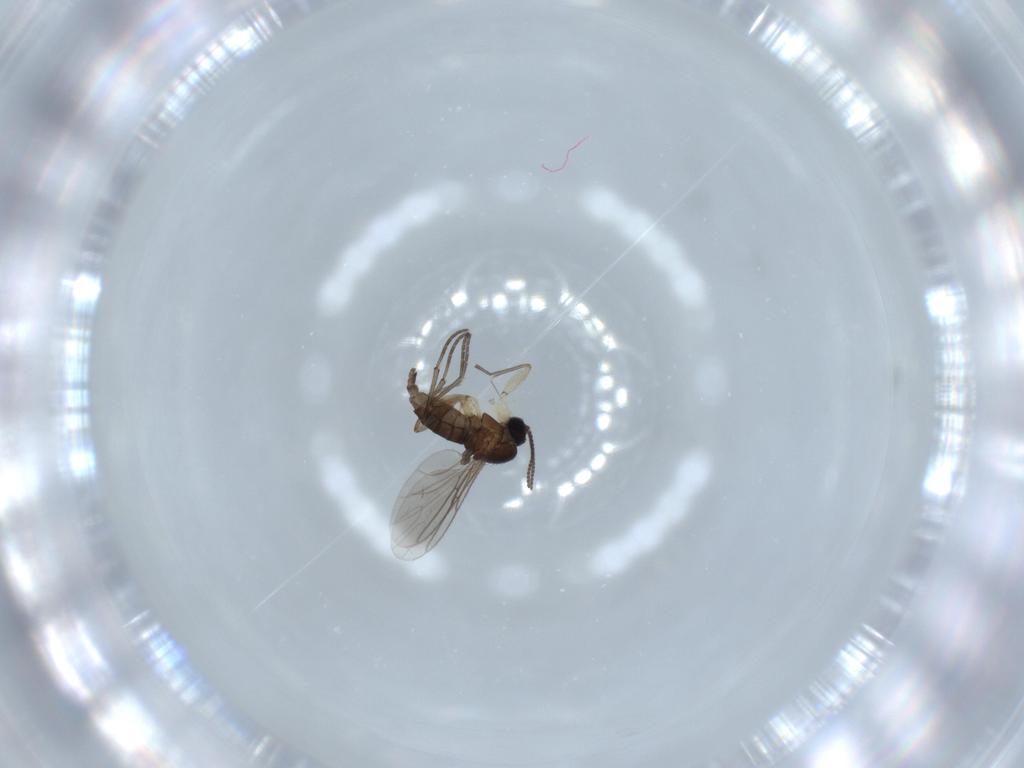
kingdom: Animalia
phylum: Arthropoda
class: Insecta
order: Diptera
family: Sciaridae
